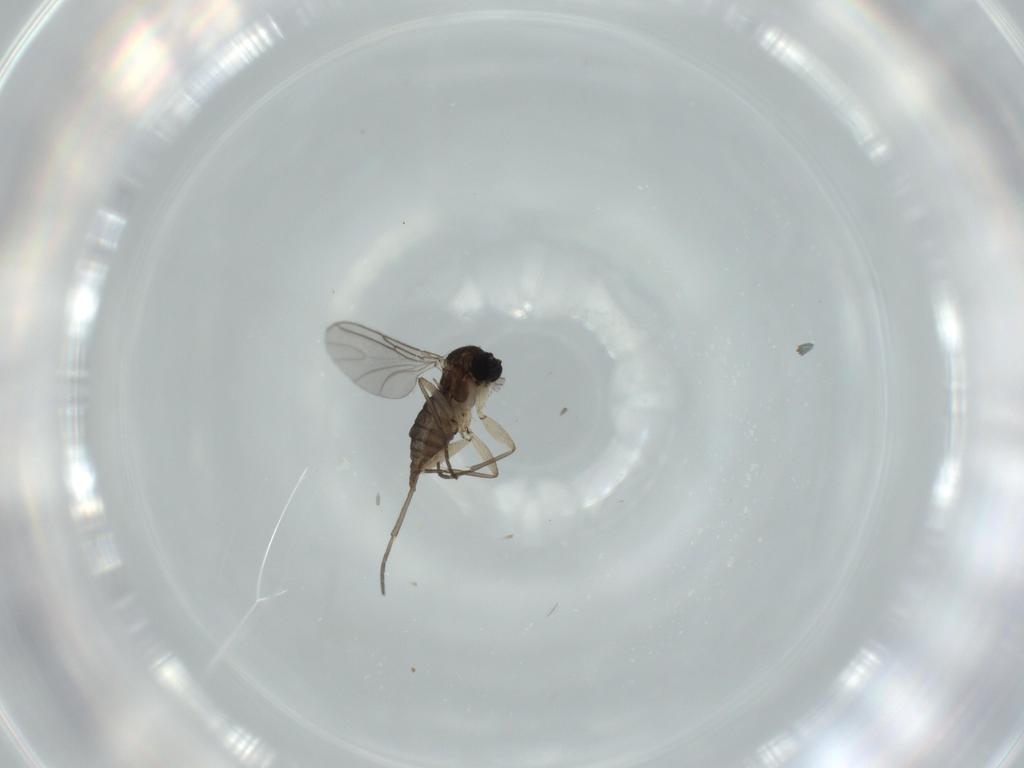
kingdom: Animalia
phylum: Arthropoda
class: Insecta
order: Diptera
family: Sciaridae
